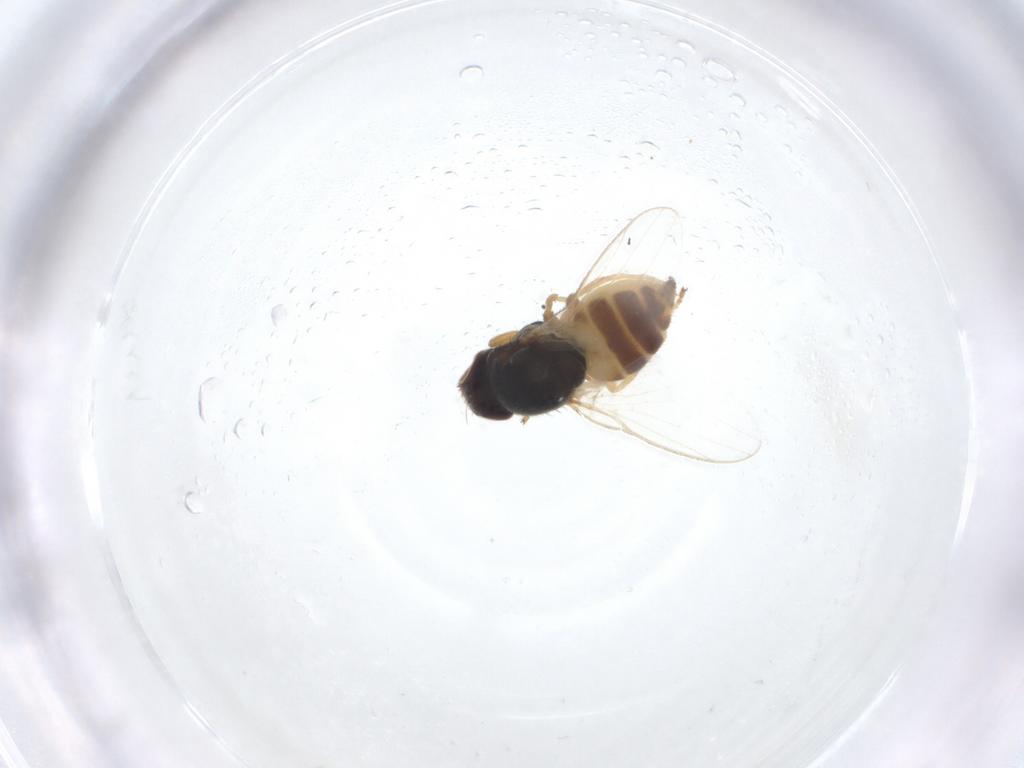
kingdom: Animalia
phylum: Arthropoda
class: Insecta
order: Diptera
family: Chloropidae
